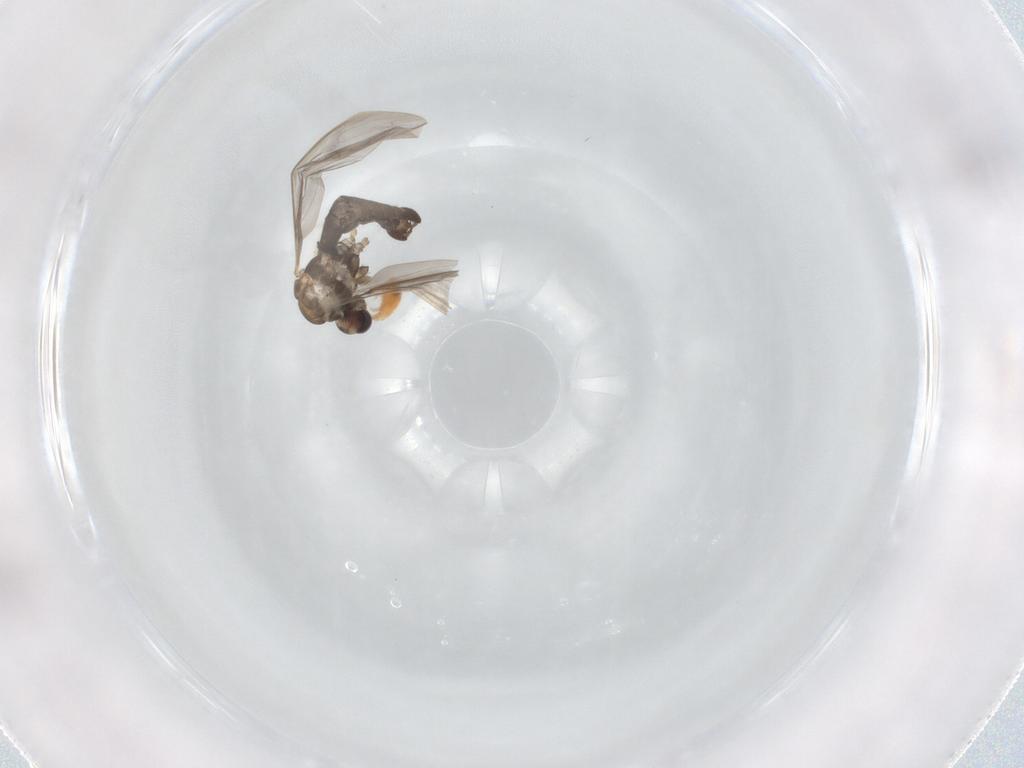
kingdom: Animalia
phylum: Arthropoda
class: Insecta
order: Diptera
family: Limoniidae
